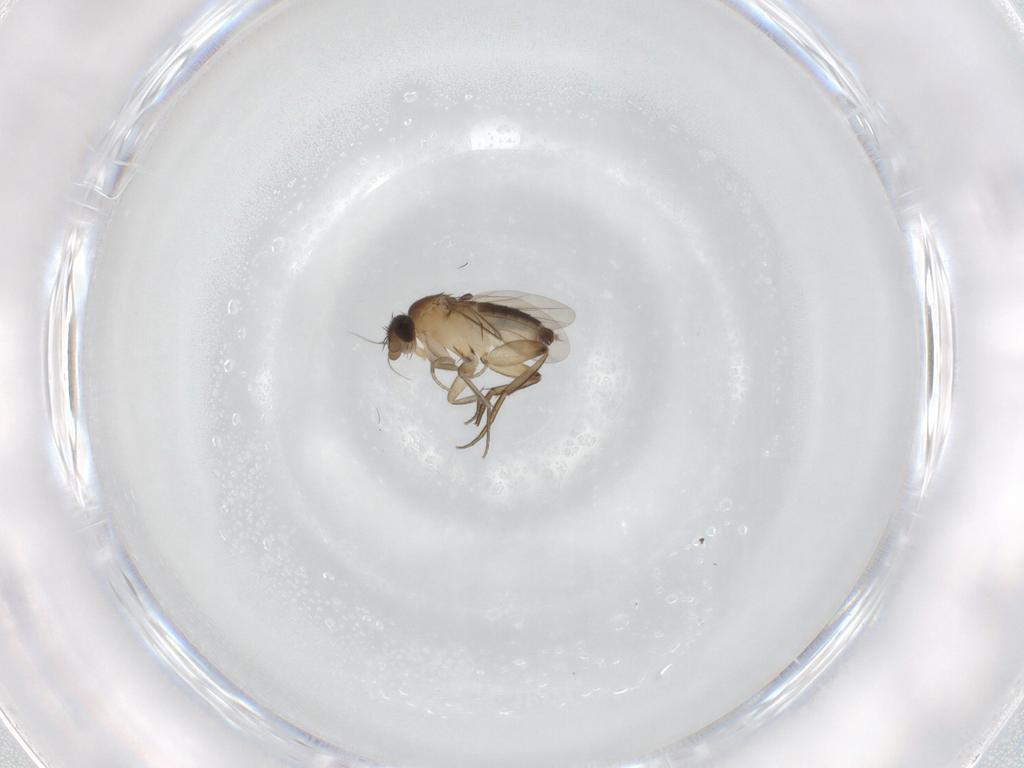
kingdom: Animalia
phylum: Arthropoda
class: Insecta
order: Diptera
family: Phoridae
